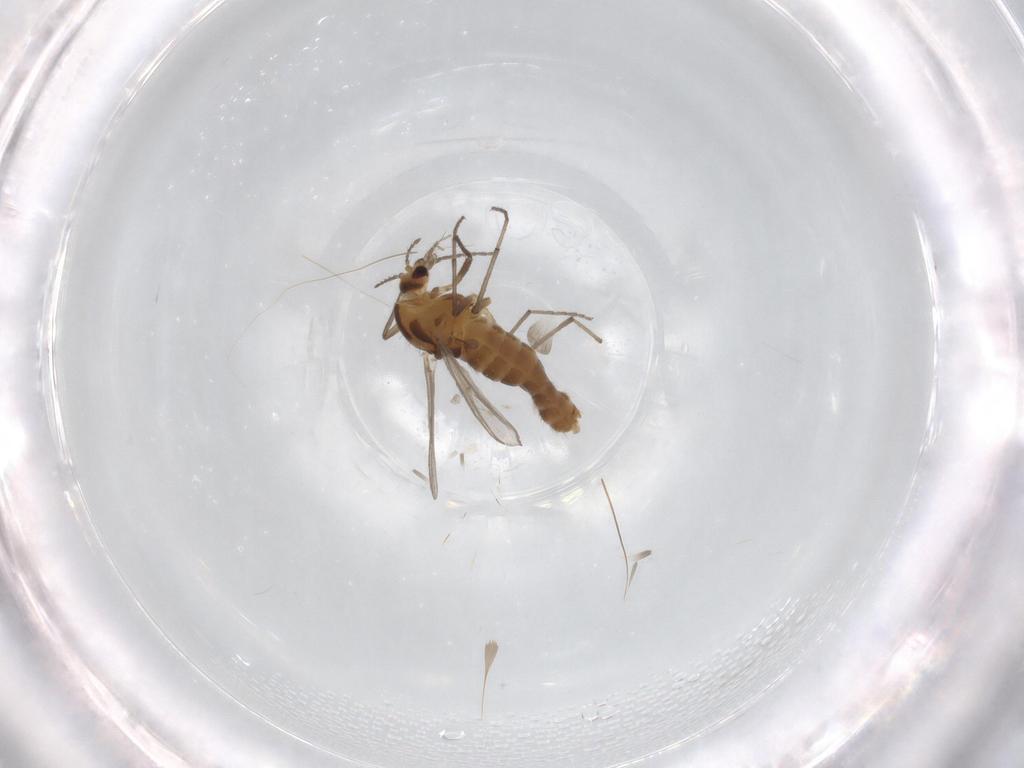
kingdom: Animalia
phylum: Arthropoda
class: Insecta
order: Diptera
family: Chironomidae
